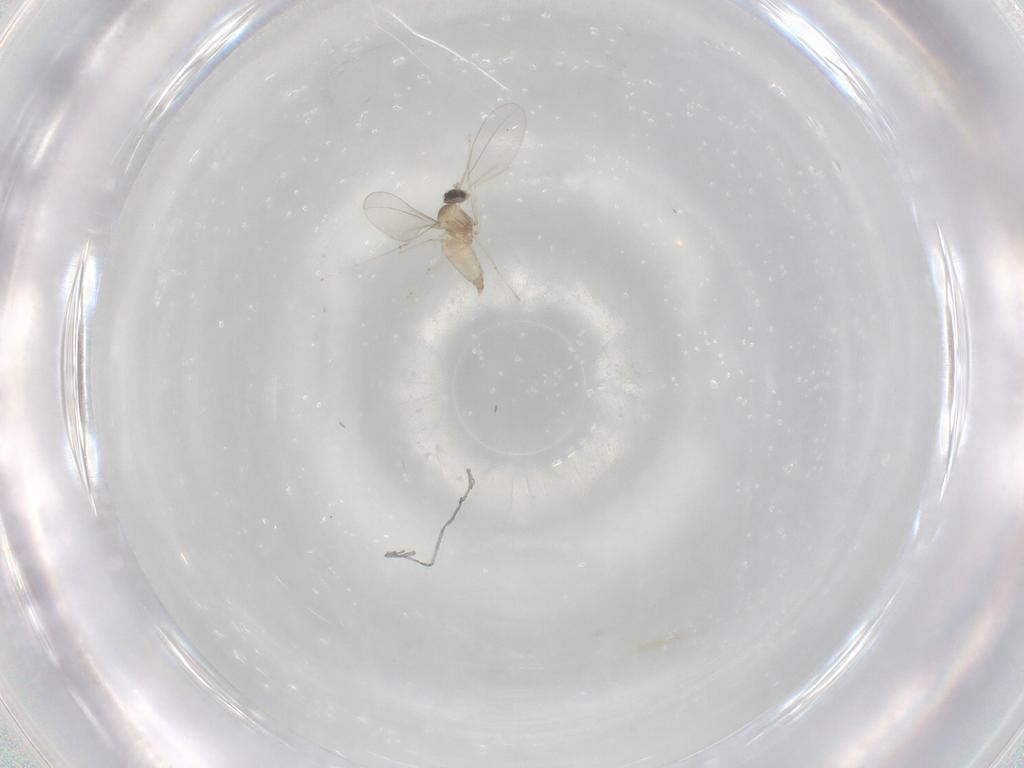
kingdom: Animalia
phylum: Arthropoda
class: Insecta
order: Diptera
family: Cecidomyiidae
